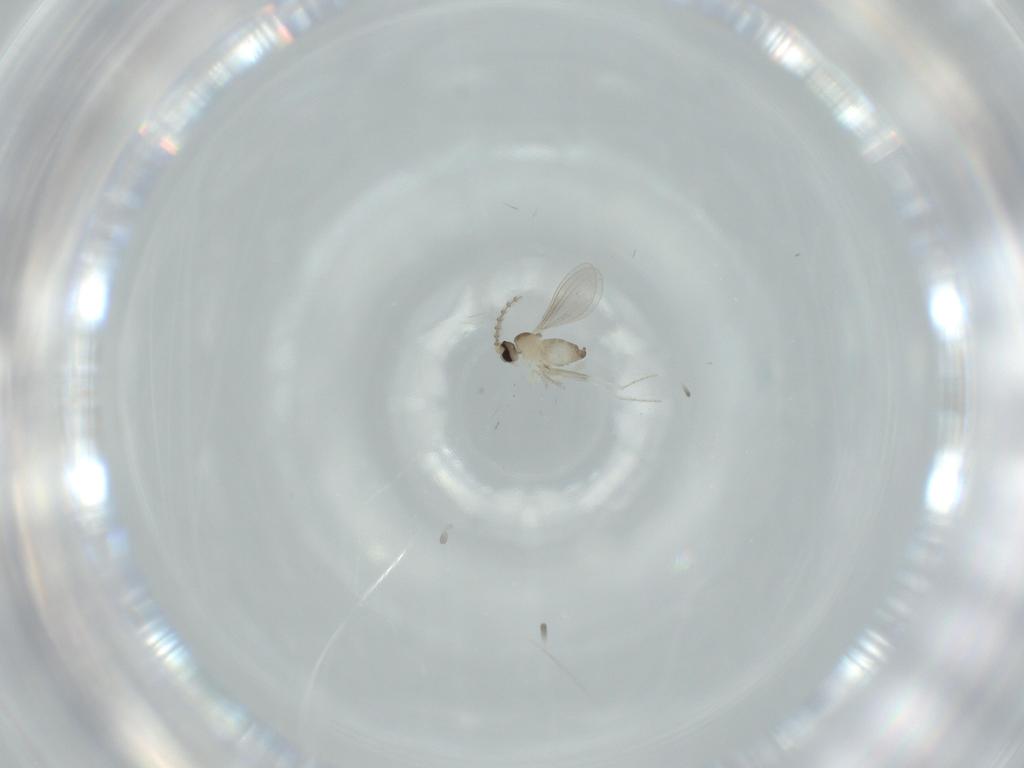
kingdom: Animalia
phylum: Arthropoda
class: Insecta
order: Diptera
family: Cecidomyiidae
